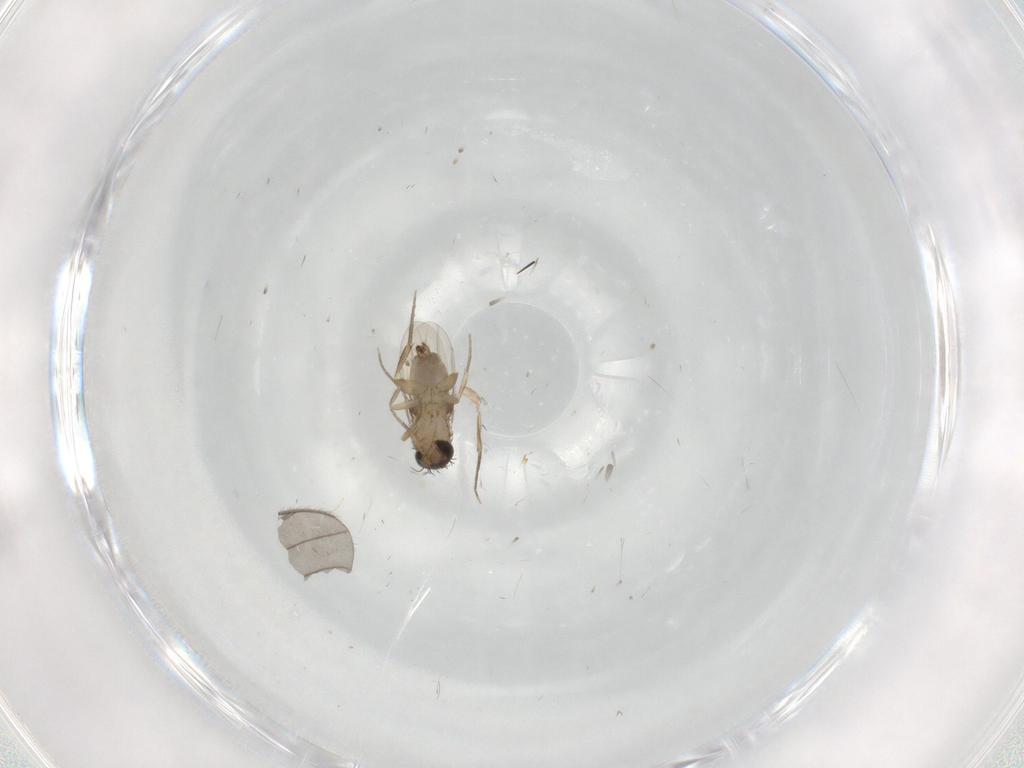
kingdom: Animalia
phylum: Arthropoda
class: Insecta
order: Diptera
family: Phoridae
